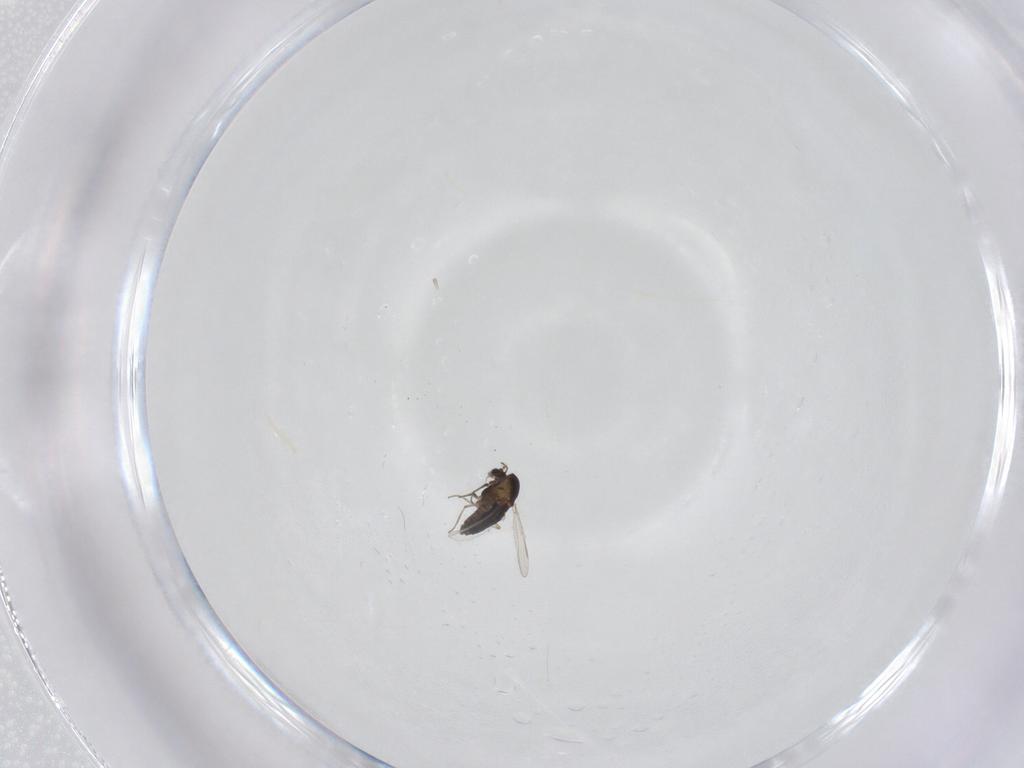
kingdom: Animalia
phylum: Arthropoda
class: Insecta
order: Diptera
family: Chironomidae
